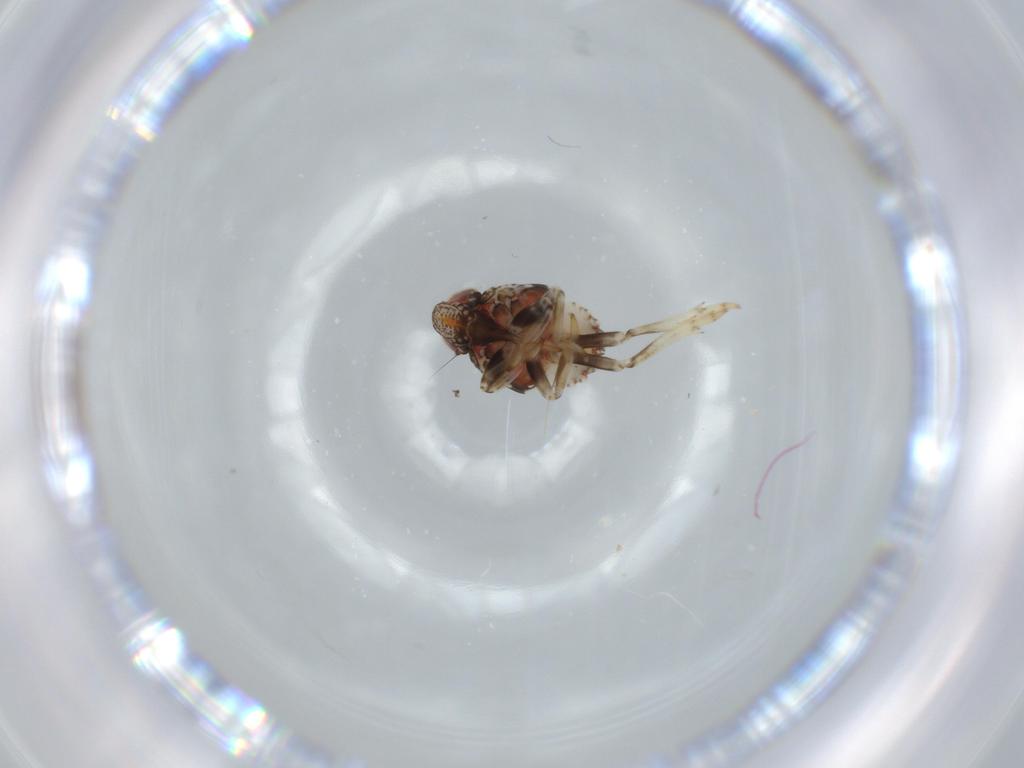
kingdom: Animalia
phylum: Arthropoda
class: Insecta
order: Hemiptera
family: Issidae
